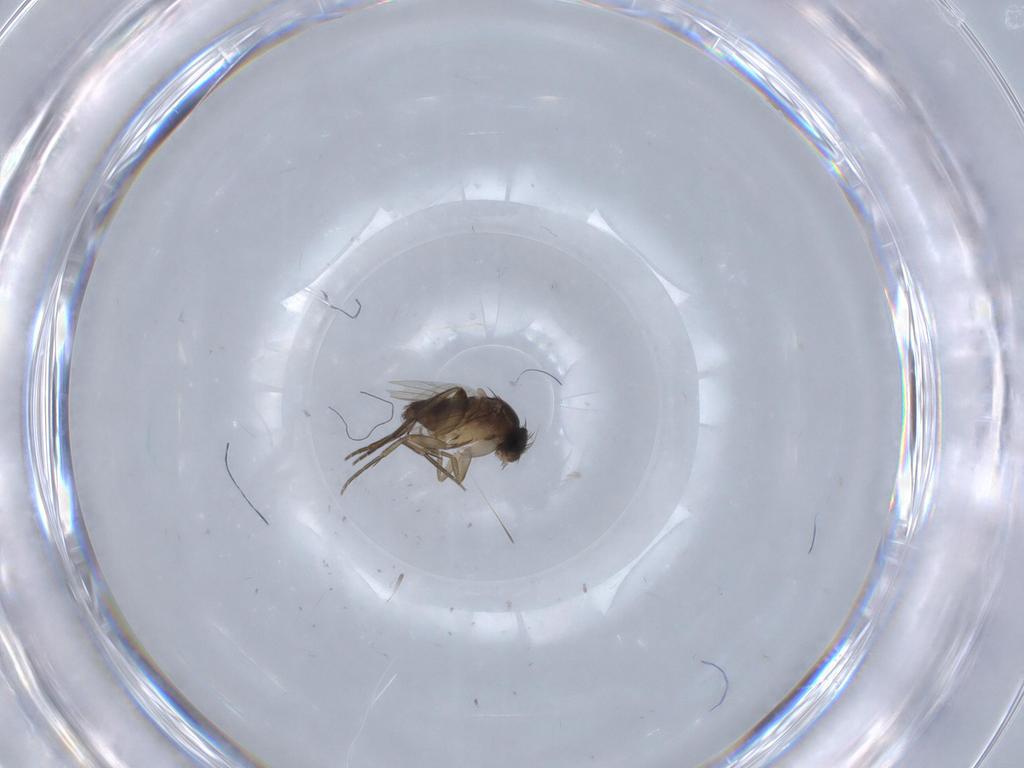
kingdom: Animalia
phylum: Arthropoda
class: Insecta
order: Diptera
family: Phoridae
